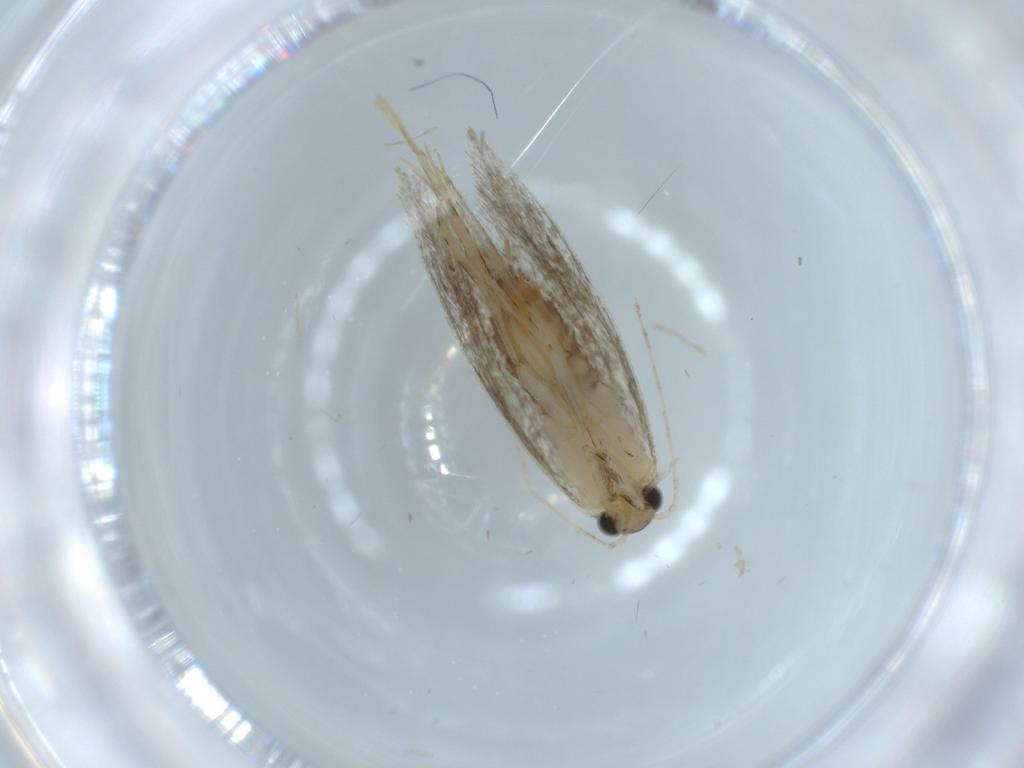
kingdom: Animalia
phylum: Arthropoda
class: Insecta
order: Lepidoptera
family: Tineidae
